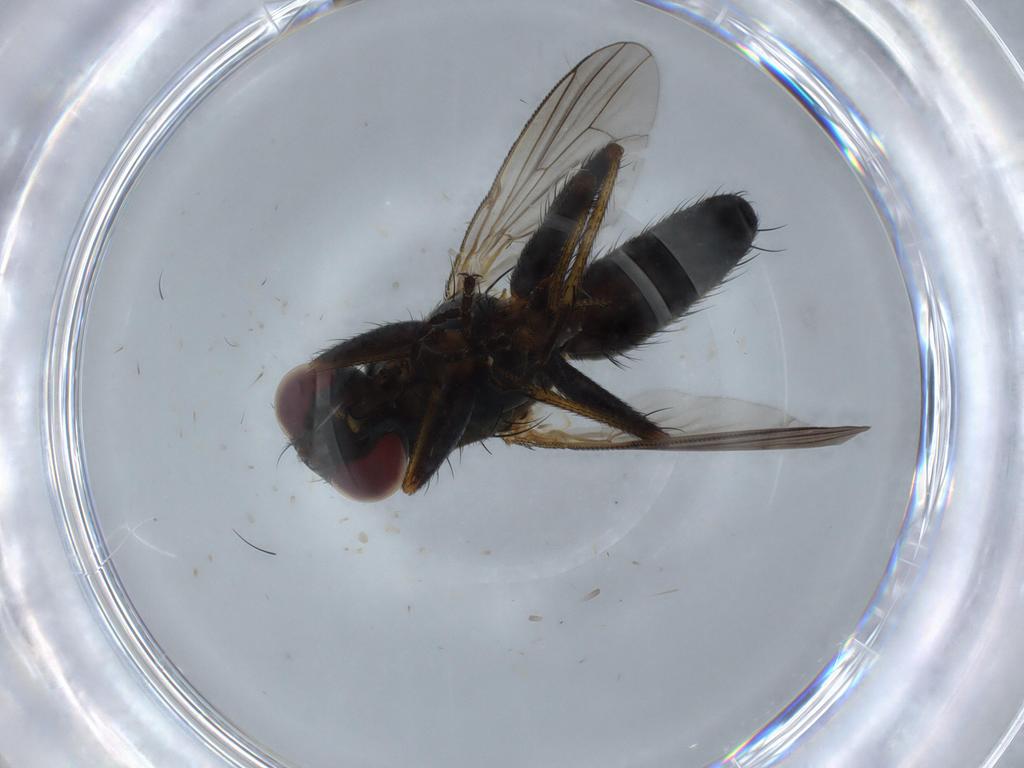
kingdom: Animalia
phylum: Arthropoda
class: Insecta
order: Diptera
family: Muscidae
